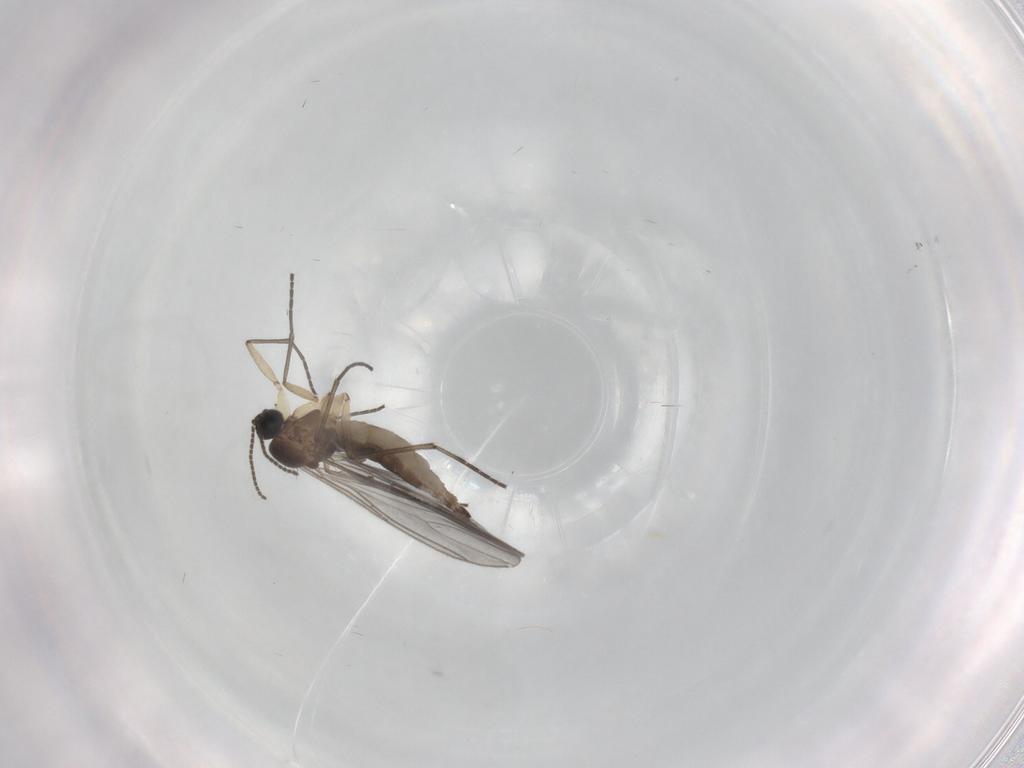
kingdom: Animalia
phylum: Arthropoda
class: Insecta
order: Diptera
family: Sciaridae
